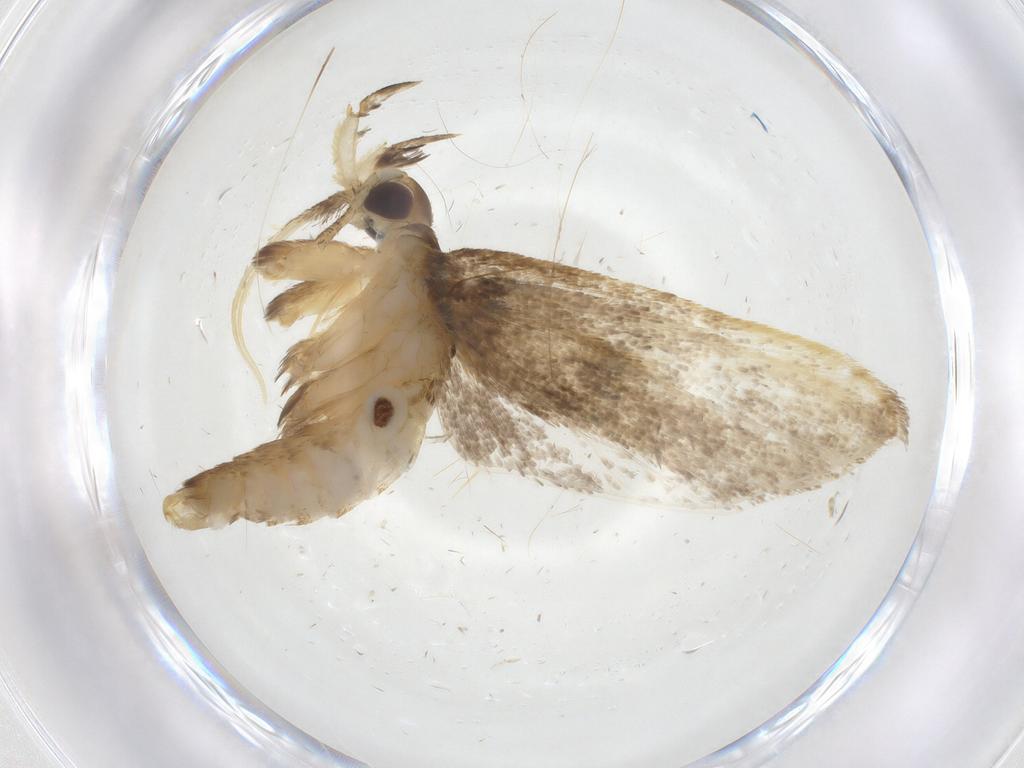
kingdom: Animalia
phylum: Arthropoda
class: Insecta
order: Lepidoptera
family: Lecithoceridae
